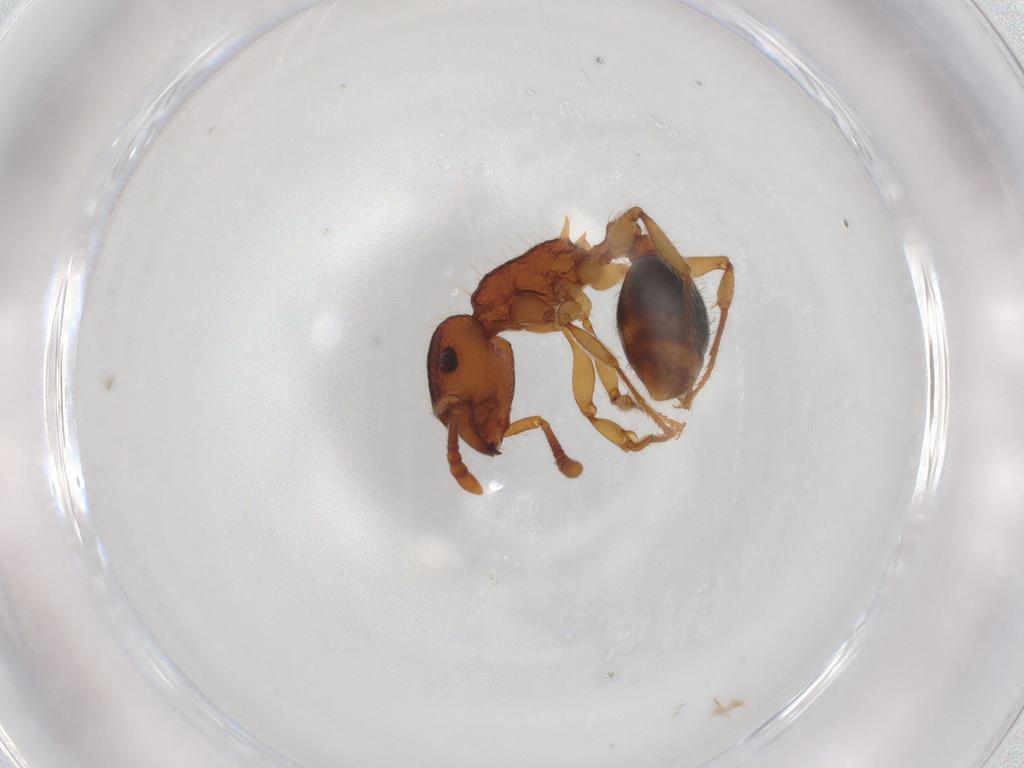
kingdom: Animalia
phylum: Arthropoda
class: Insecta
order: Hymenoptera
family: Formicidae
